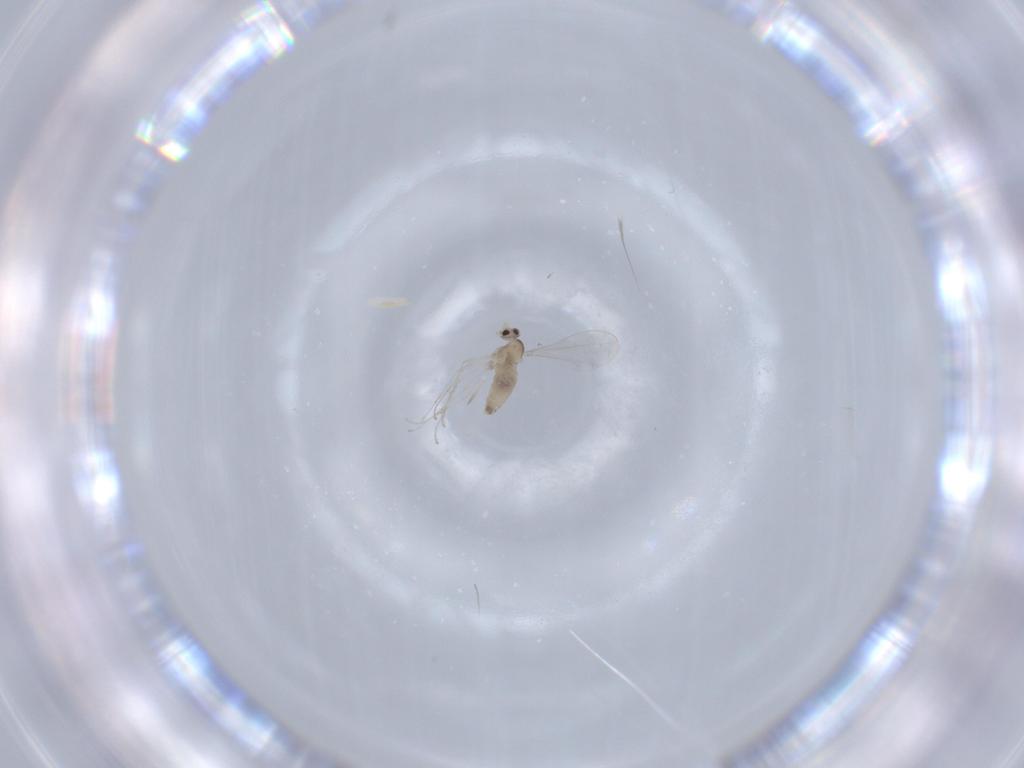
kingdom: Animalia
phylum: Arthropoda
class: Insecta
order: Diptera
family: Cecidomyiidae
